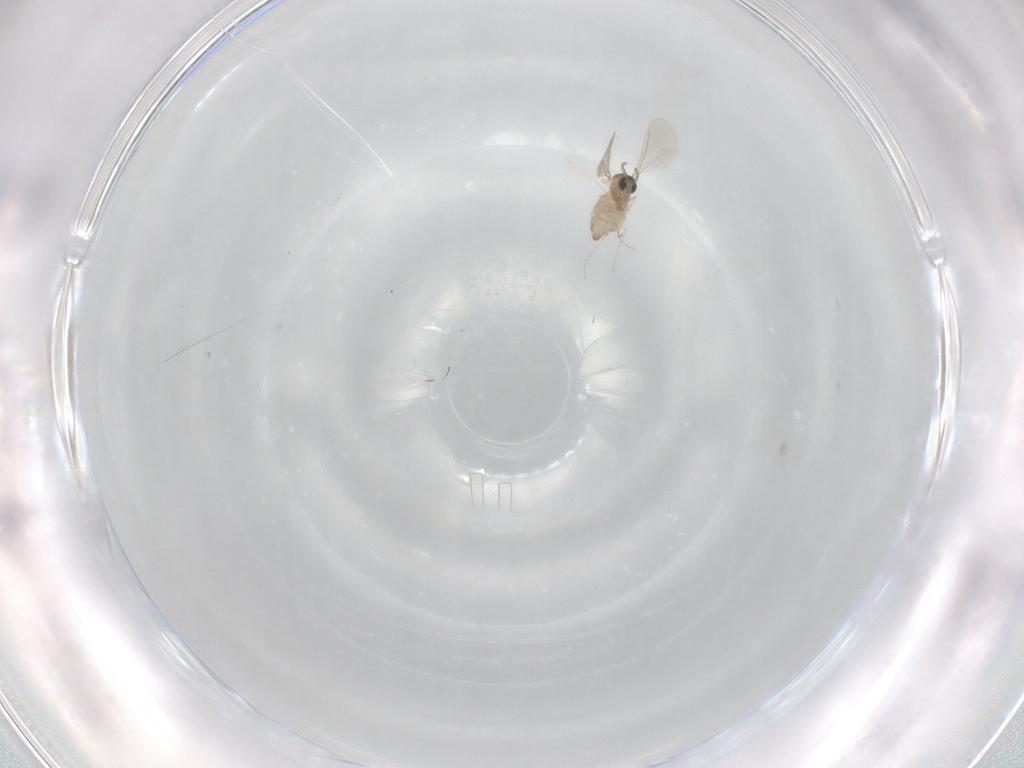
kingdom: Animalia
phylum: Arthropoda
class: Insecta
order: Diptera
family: Cecidomyiidae
